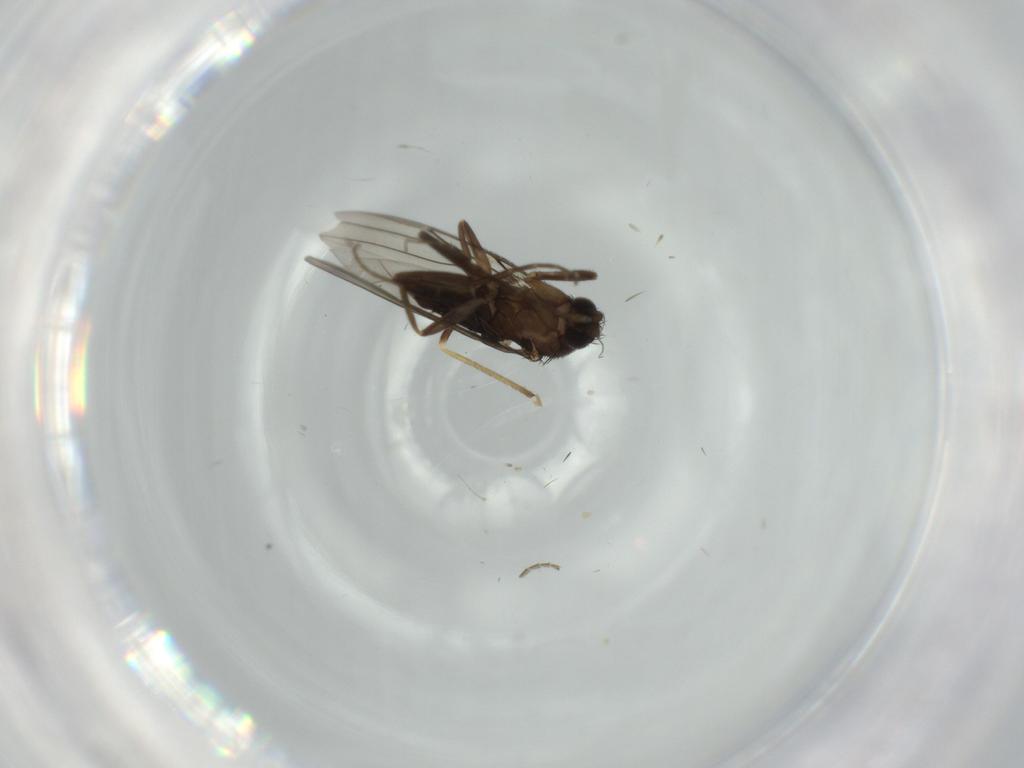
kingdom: Animalia
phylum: Arthropoda
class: Insecta
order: Diptera
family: Cecidomyiidae
